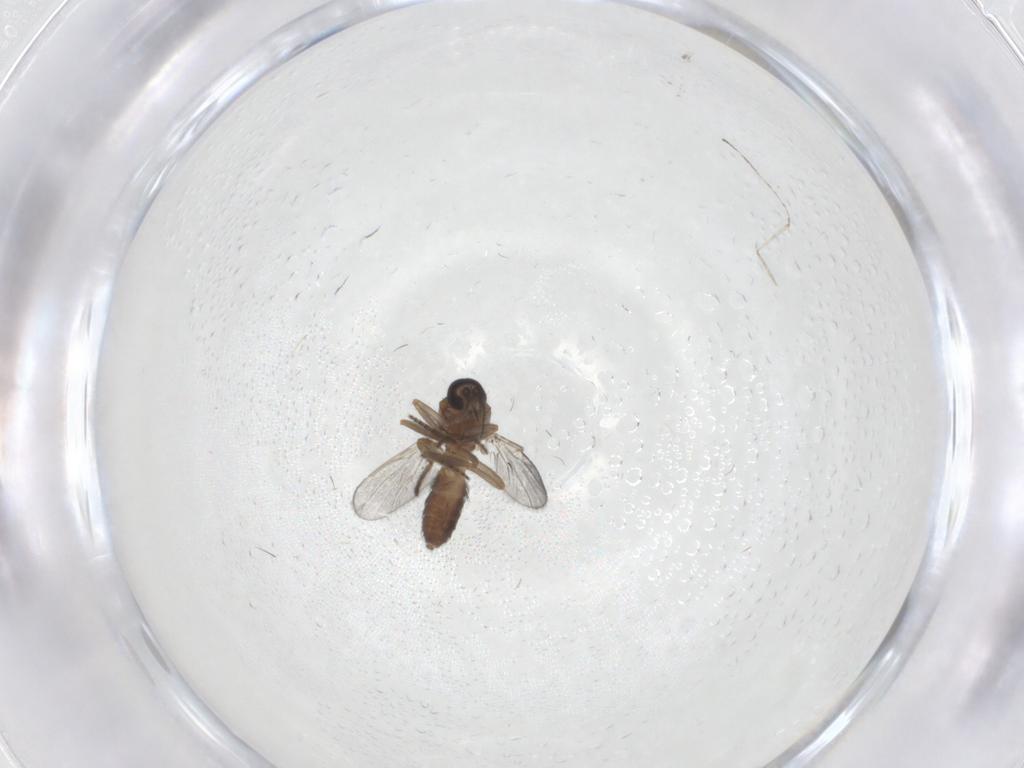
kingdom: Animalia
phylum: Arthropoda
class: Insecta
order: Diptera
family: Ceratopogonidae
